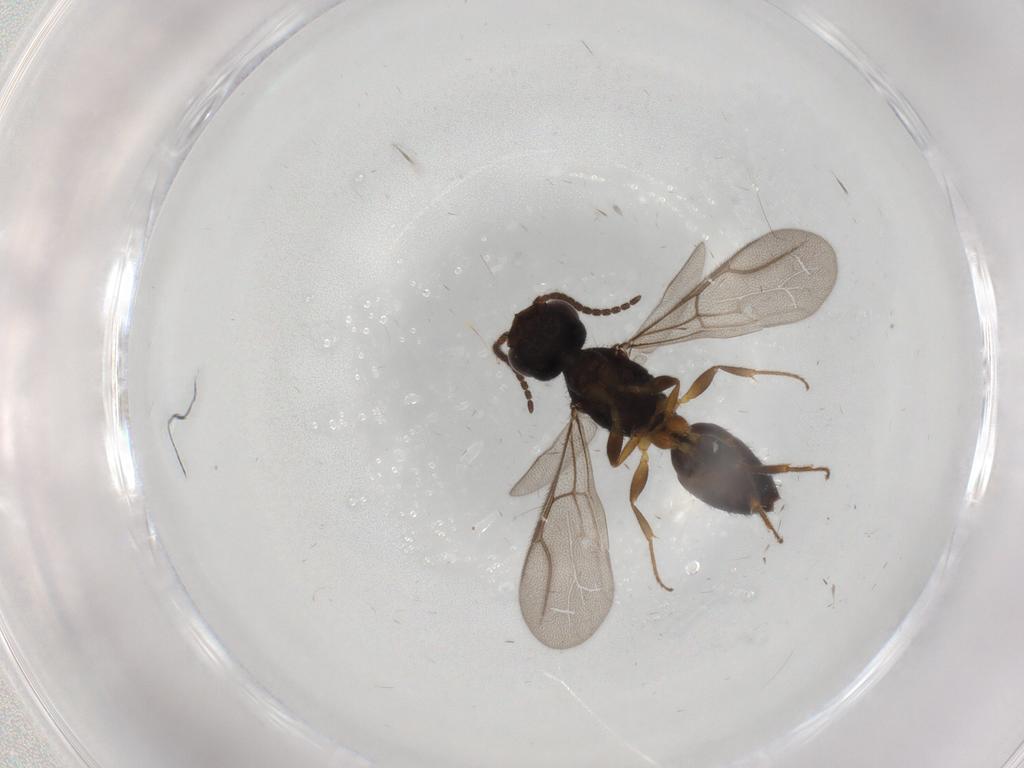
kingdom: Animalia
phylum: Arthropoda
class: Insecta
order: Hymenoptera
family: Bethylidae
